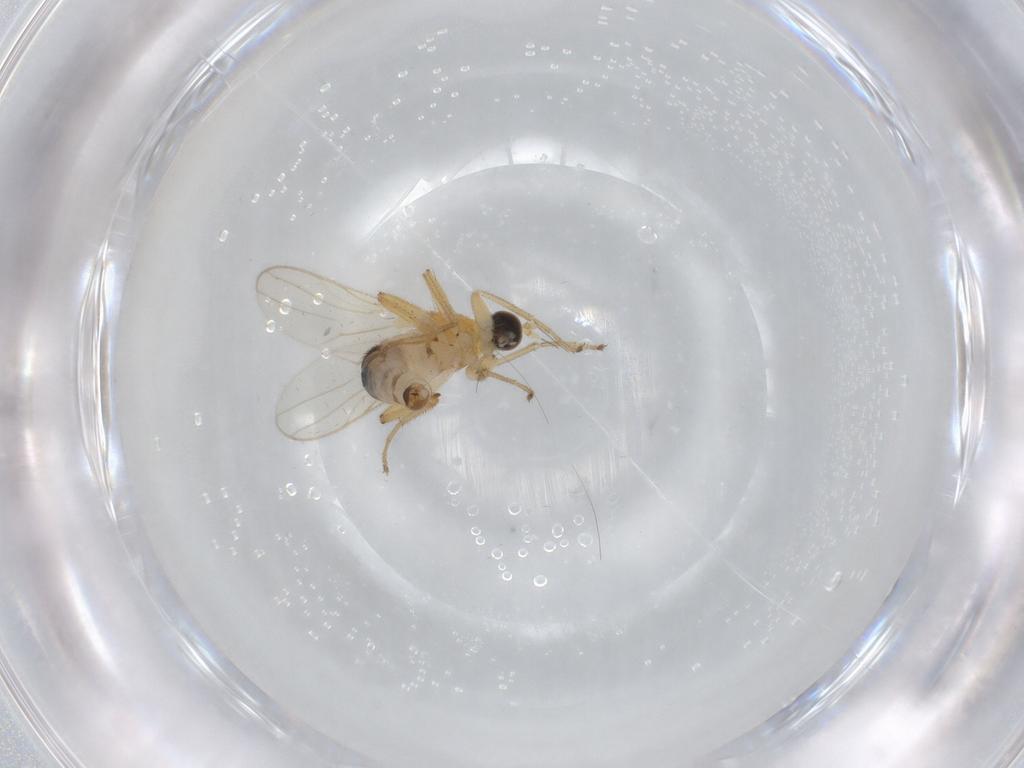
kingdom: Animalia
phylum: Arthropoda
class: Insecta
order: Diptera
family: Hybotidae
